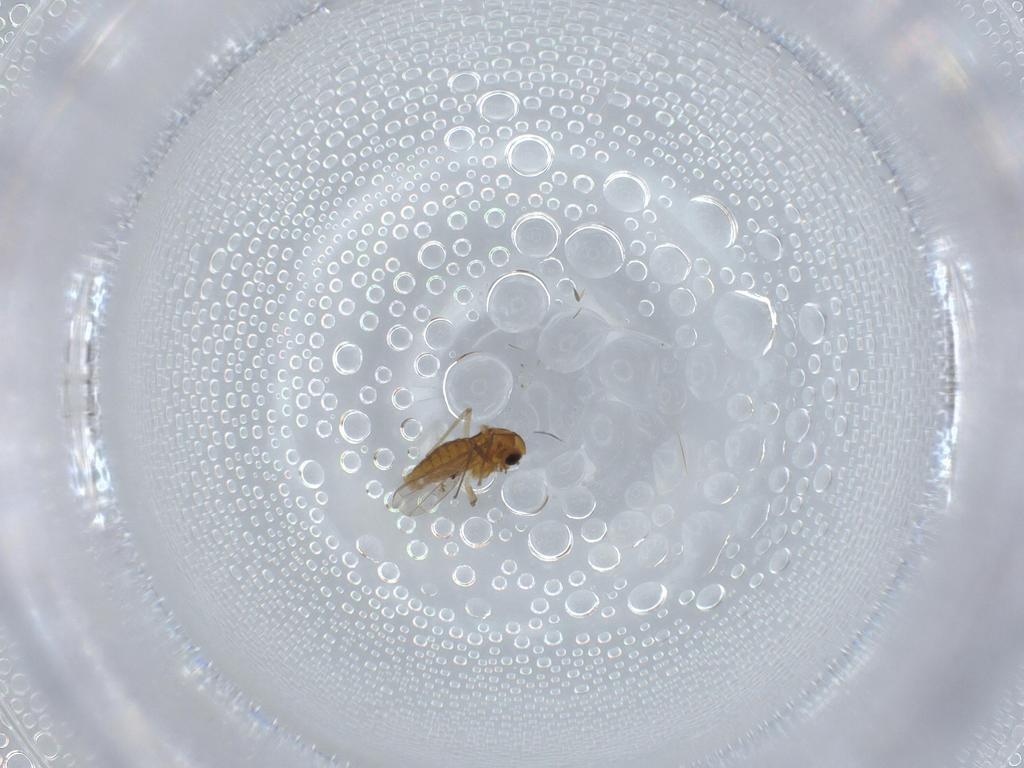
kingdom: Animalia
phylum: Arthropoda
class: Insecta
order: Diptera
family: Chironomidae
